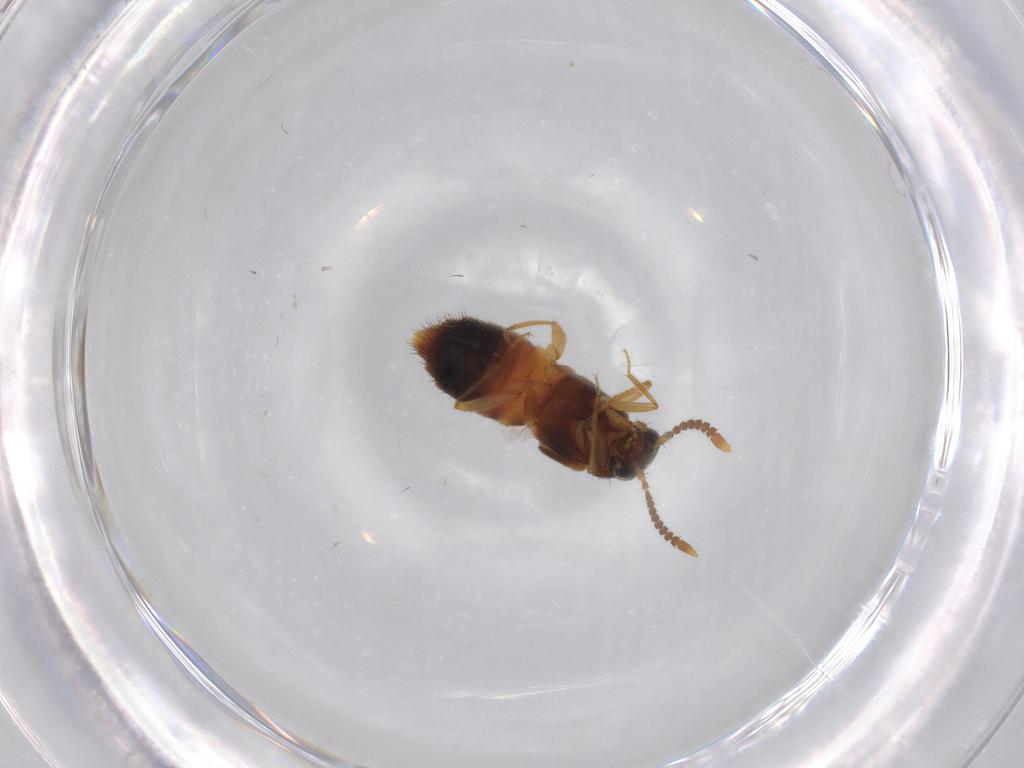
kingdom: Animalia
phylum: Arthropoda
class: Insecta
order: Coleoptera
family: Staphylinidae
